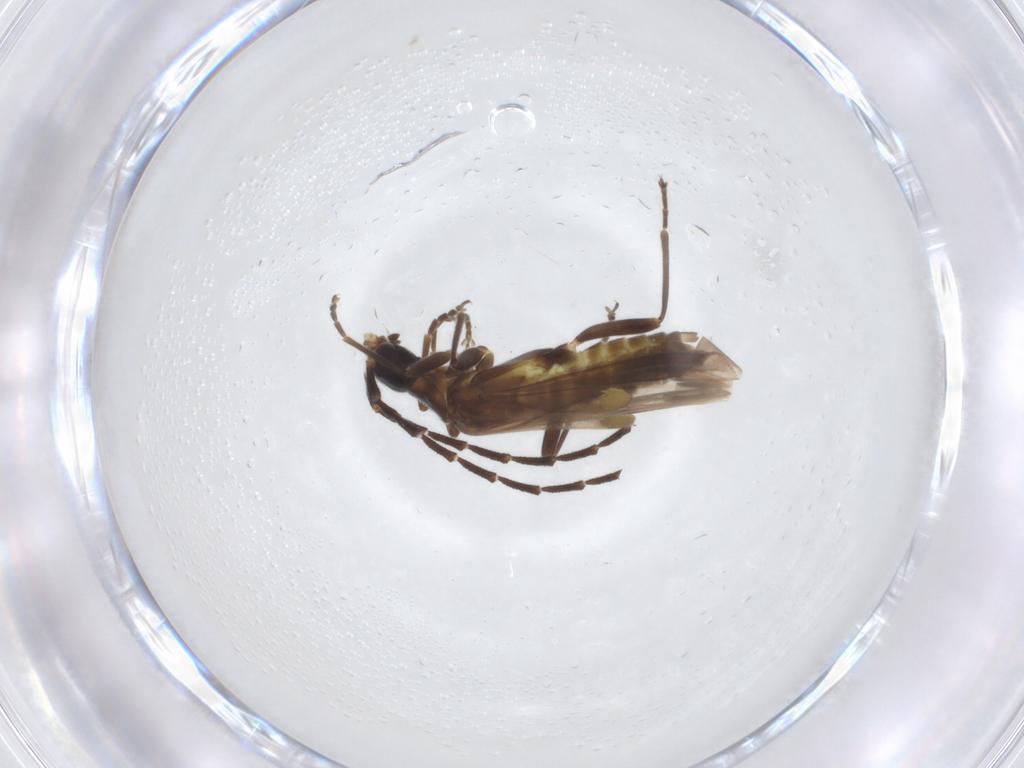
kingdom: Animalia
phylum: Arthropoda
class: Insecta
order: Coleoptera
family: Cantharidae
